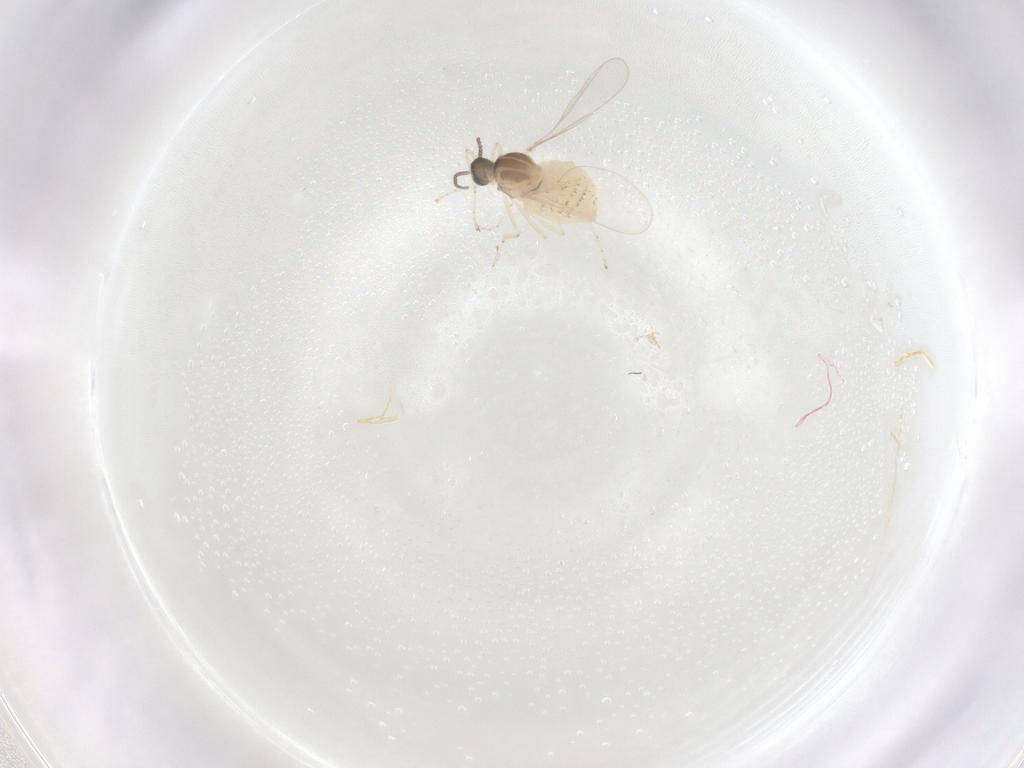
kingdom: Animalia
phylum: Arthropoda
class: Insecta
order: Diptera
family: Cecidomyiidae
